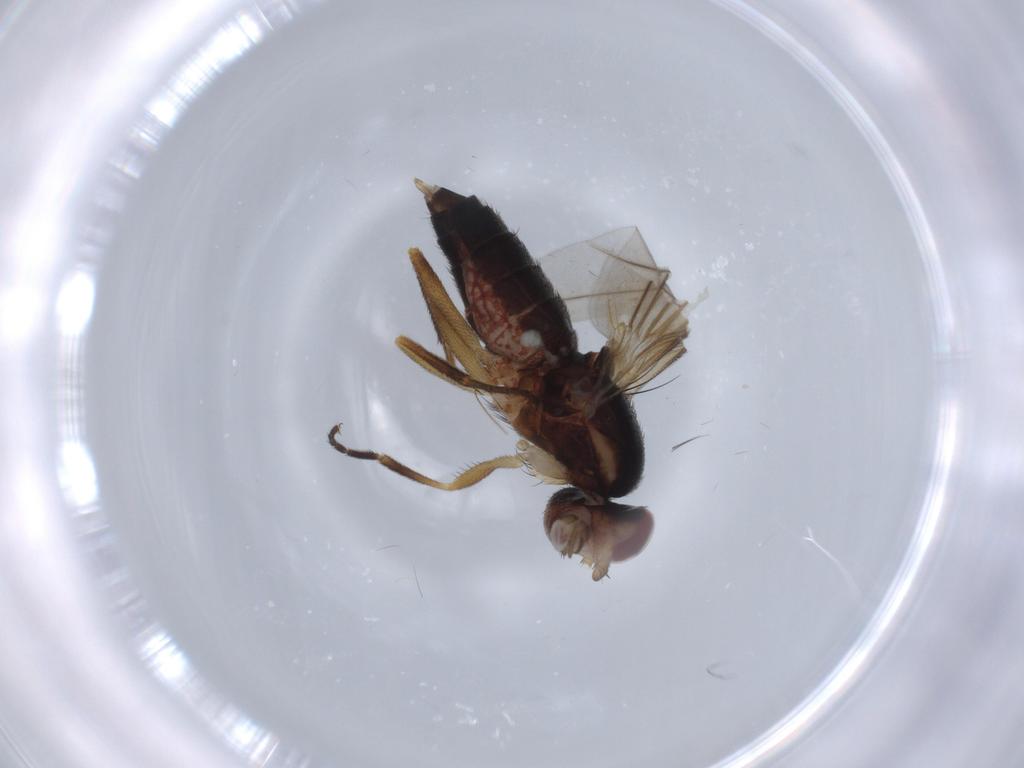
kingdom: Animalia
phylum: Arthropoda
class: Insecta
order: Diptera
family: Clusiidae
